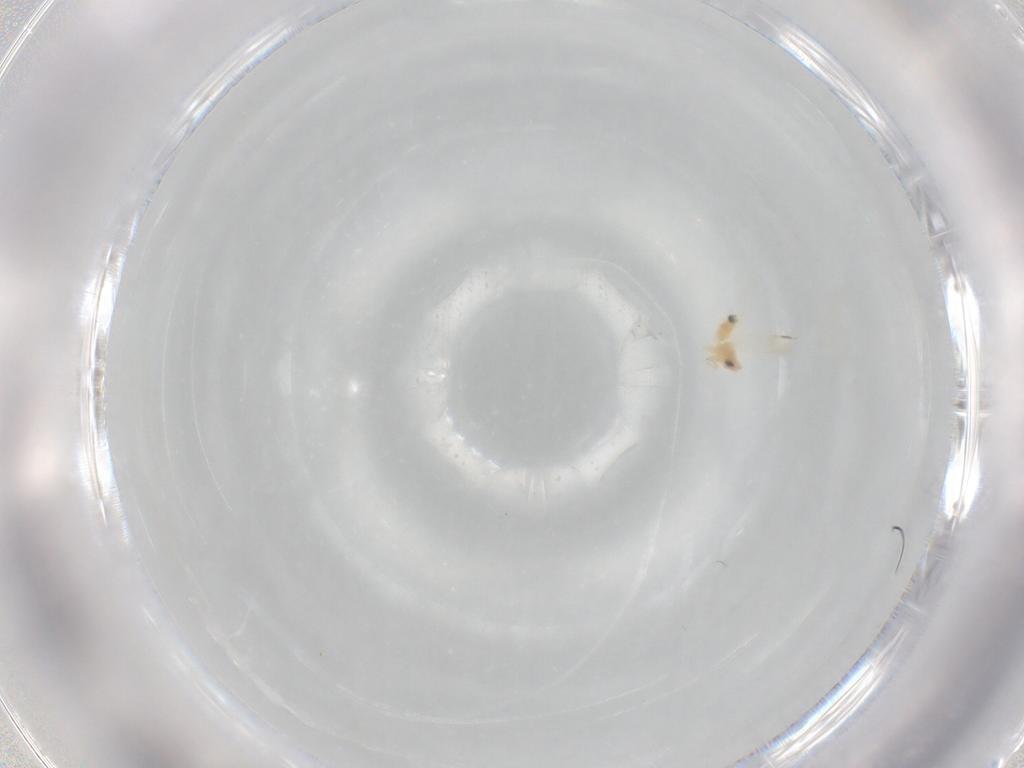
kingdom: Animalia
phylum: Arthropoda
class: Insecta
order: Hemiptera
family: Aleyrodidae
